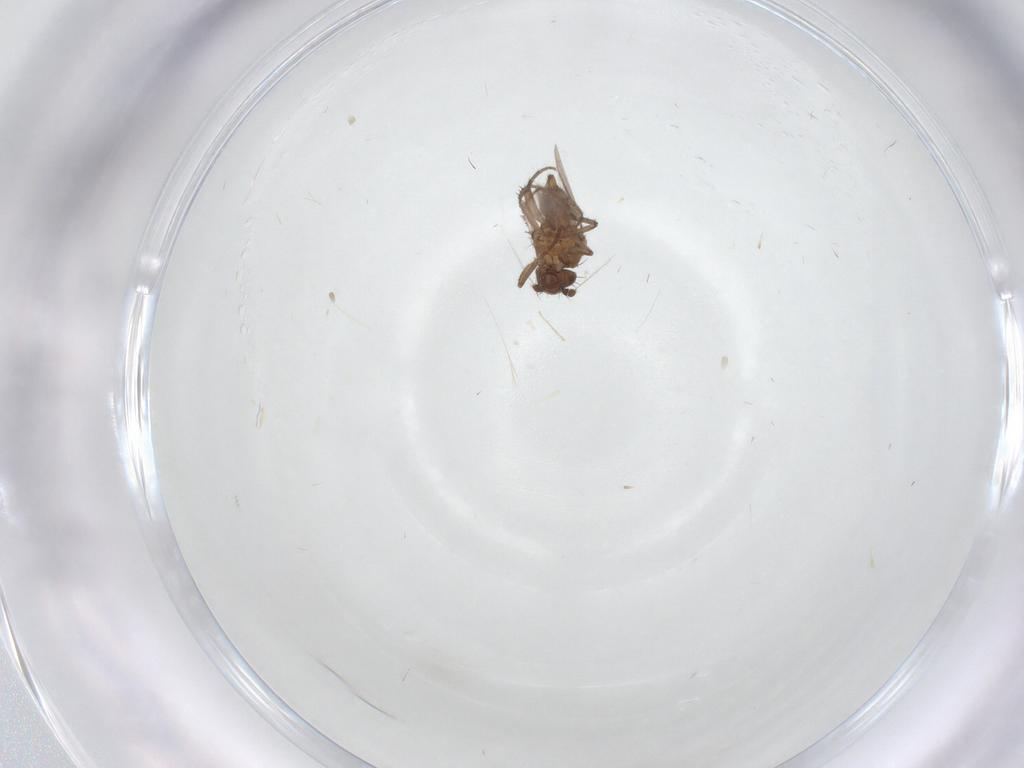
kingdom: Animalia
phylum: Arthropoda
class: Insecta
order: Diptera
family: Sphaeroceridae
